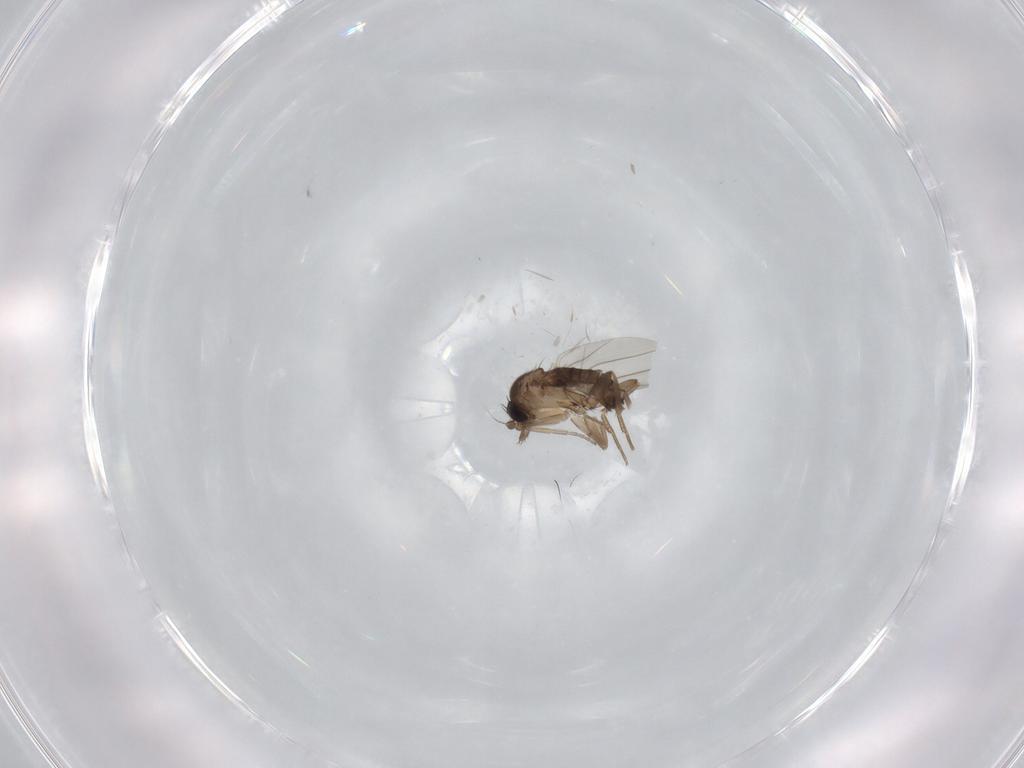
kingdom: Animalia
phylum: Arthropoda
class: Insecta
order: Diptera
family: Phoridae
